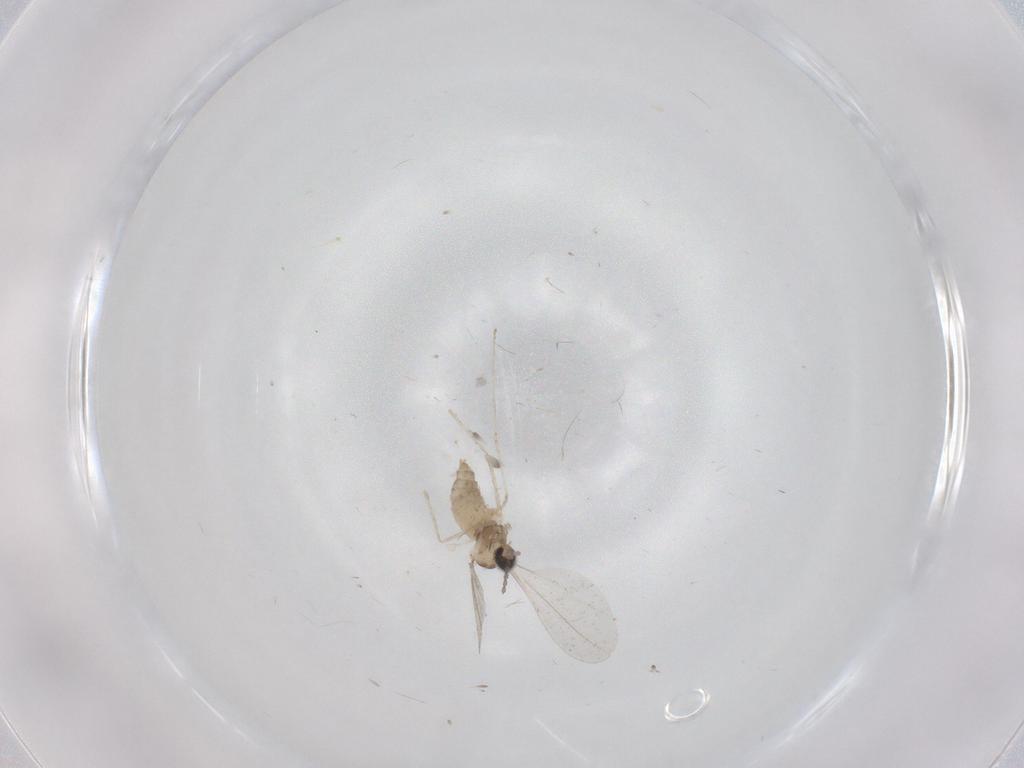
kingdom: Animalia
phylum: Arthropoda
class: Insecta
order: Diptera
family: Cecidomyiidae
